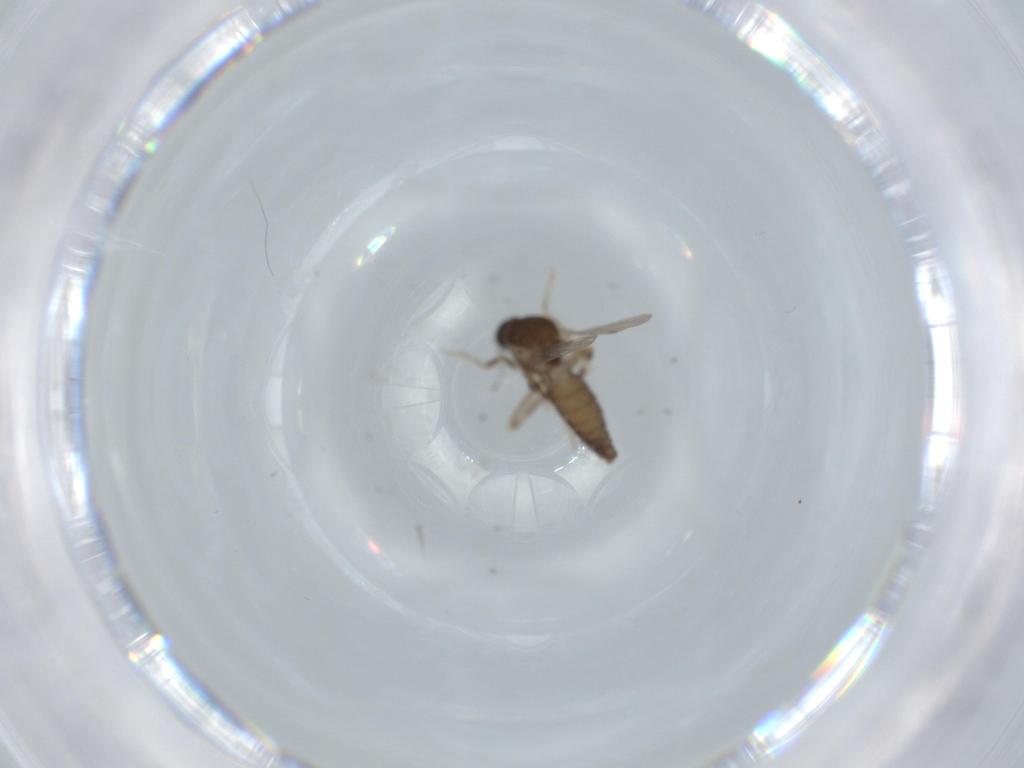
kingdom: Animalia
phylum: Arthropoda
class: Insecta
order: Diptera
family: Ceratopogonidae
